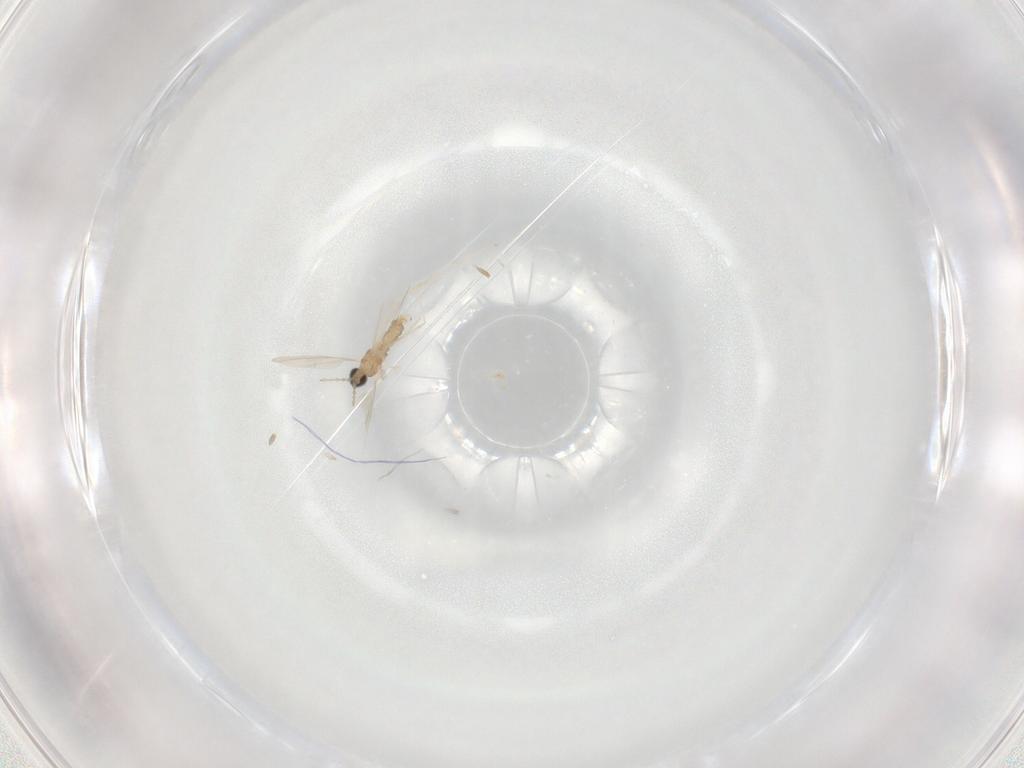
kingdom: Animalia
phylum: Arthropoda
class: Insecta
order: Diptera
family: Cecidomyiidae
